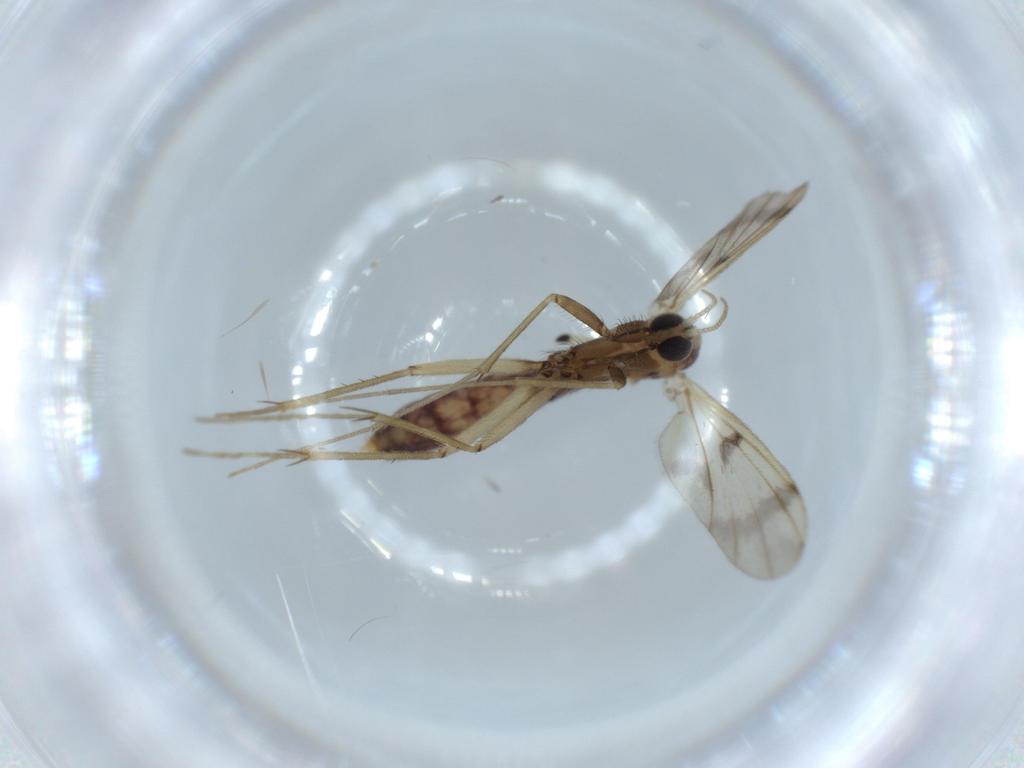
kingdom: Animalia
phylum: Arthropoda
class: Insecta
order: Diptera
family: Mycetophilidae
